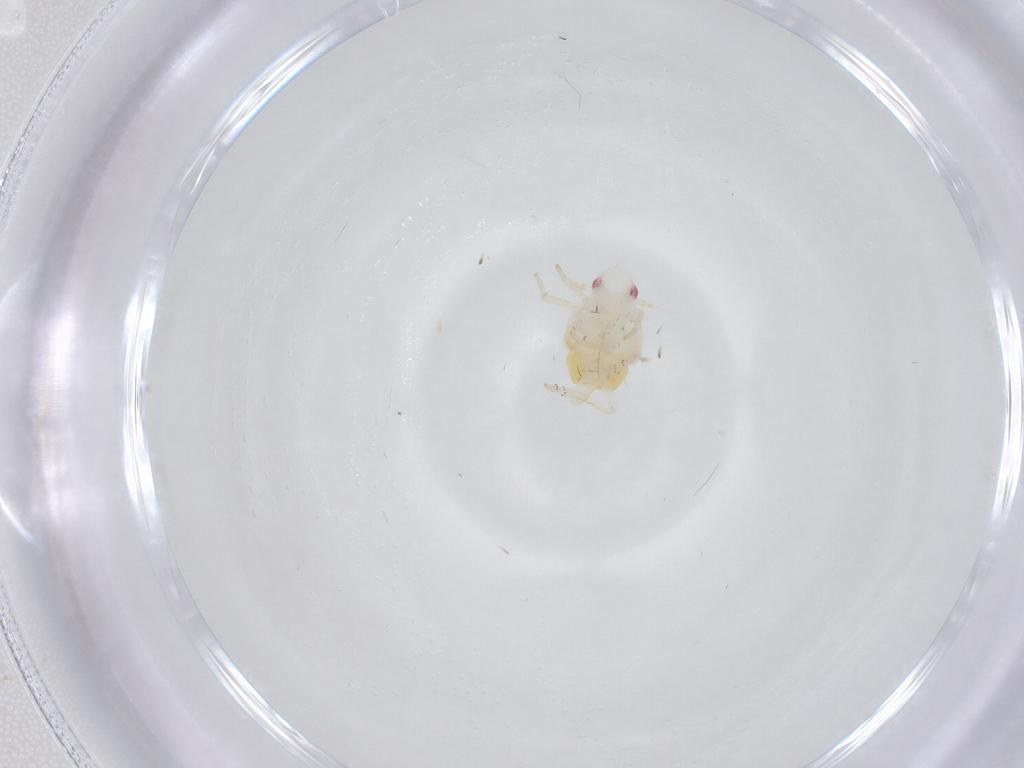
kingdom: Animalia
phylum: Arthropoda
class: Insecta
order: Hemiptera
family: Fulgoroidea_incertae_sedis
